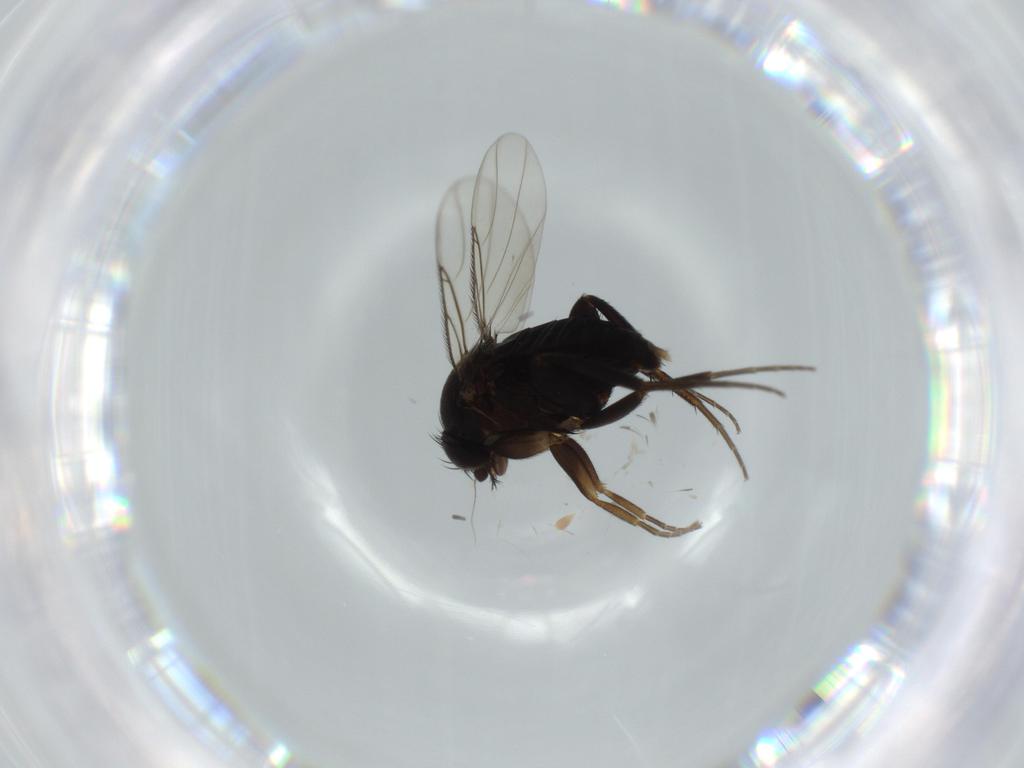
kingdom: Animalia
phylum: Arthropoda
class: Insecta
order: Diptera
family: Phoridae
